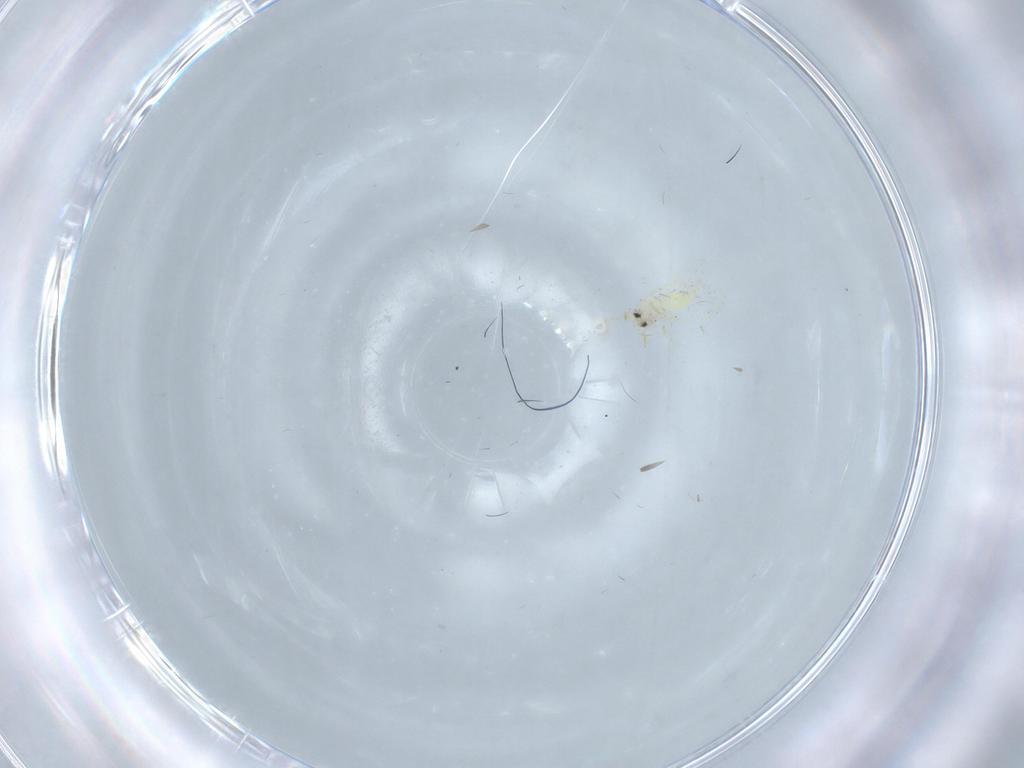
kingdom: Animalia
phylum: Arthropoda
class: Insecta
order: Hemiptera
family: Aleyrodidae
